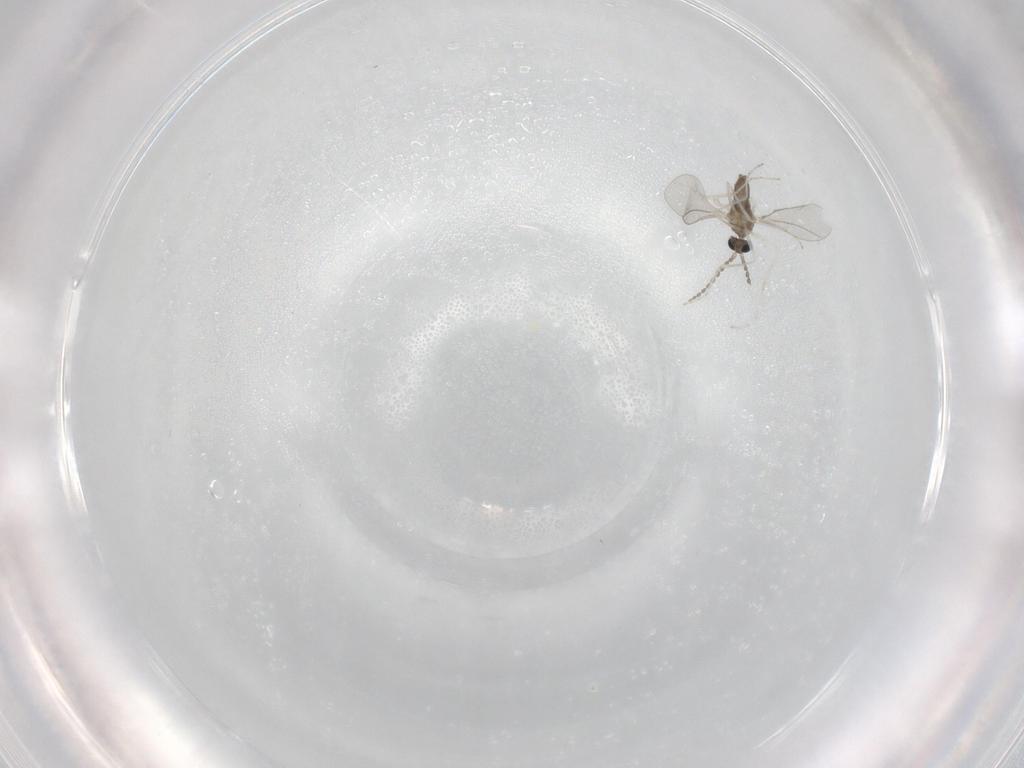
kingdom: Animalia
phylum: Arthropoda
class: Insecta
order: Diptera
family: Cecidomyiidae
